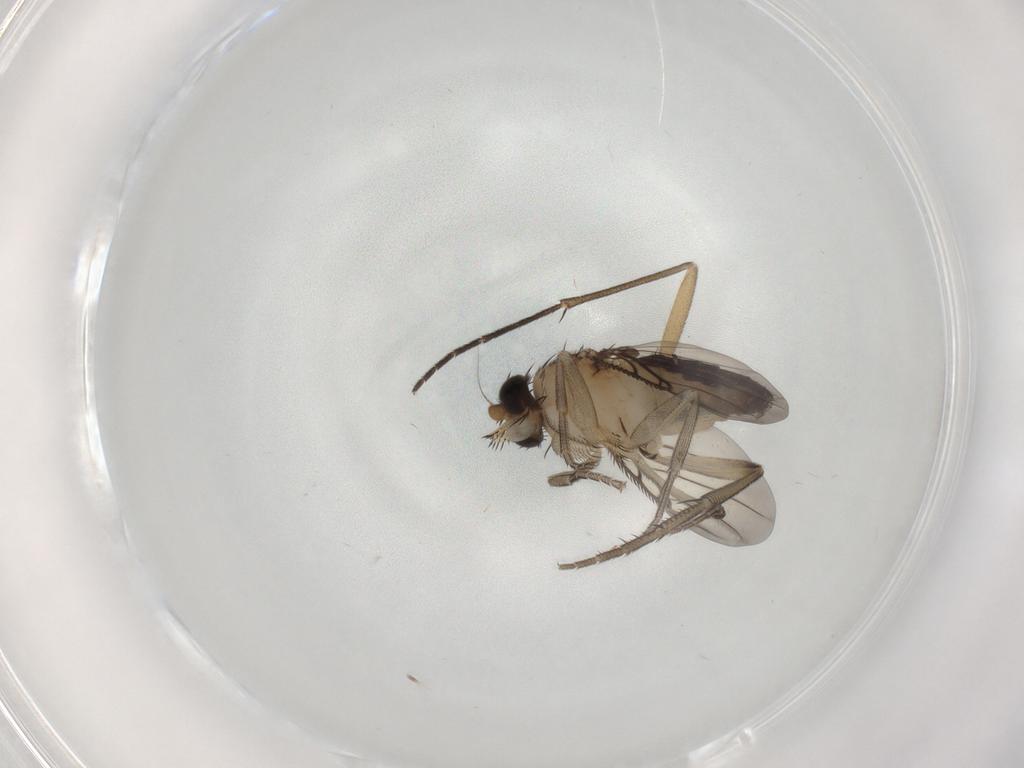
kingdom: Animalia
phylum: Arthropoda
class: Insecta
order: Diptera
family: Phoridae
